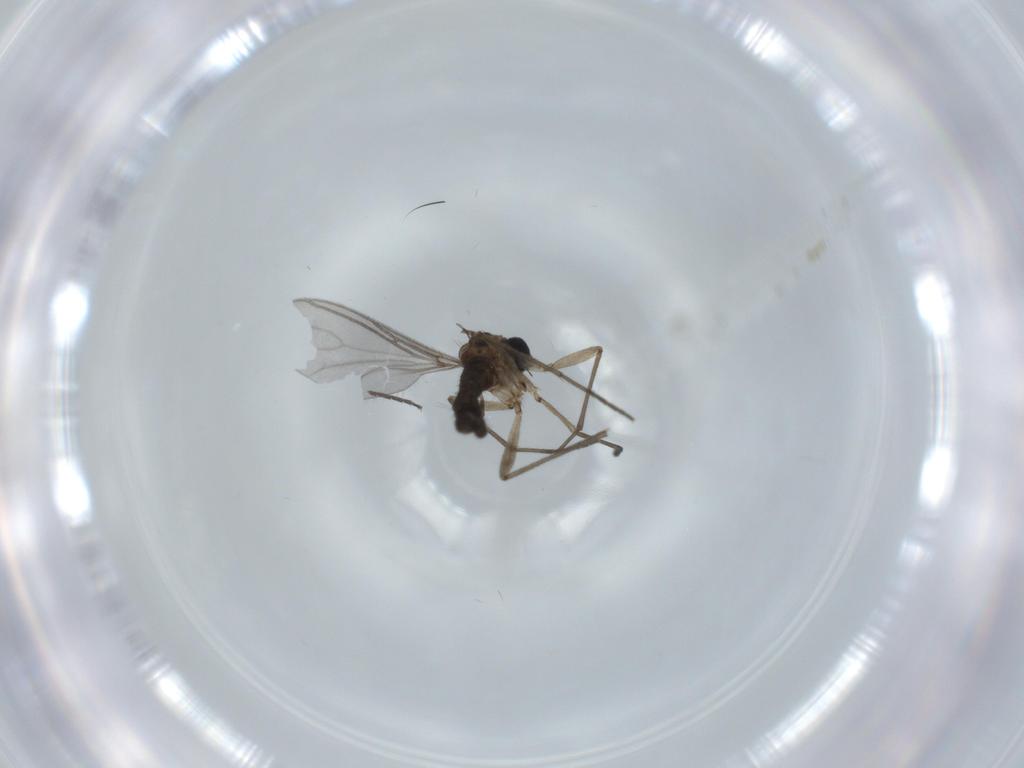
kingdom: Animalia
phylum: Arthropoda
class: Insecta
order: Diptera
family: Sciaridae
